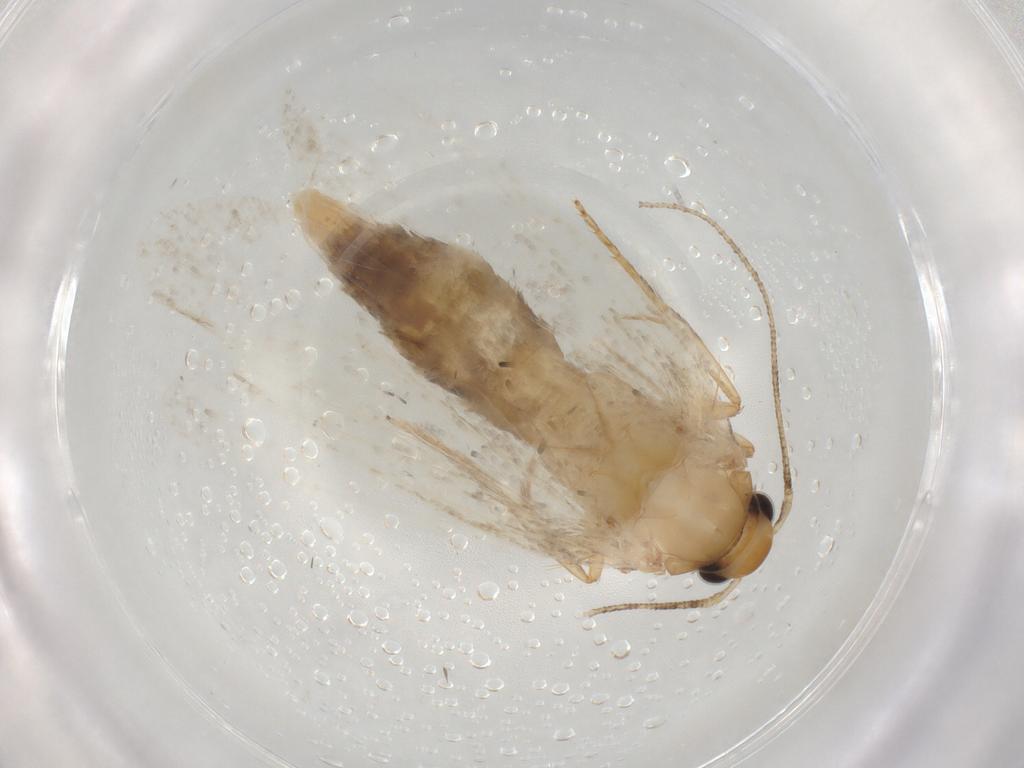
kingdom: Animalia
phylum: Arthropoda
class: Insecta
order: Lepidoptera
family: Oecophoridae
